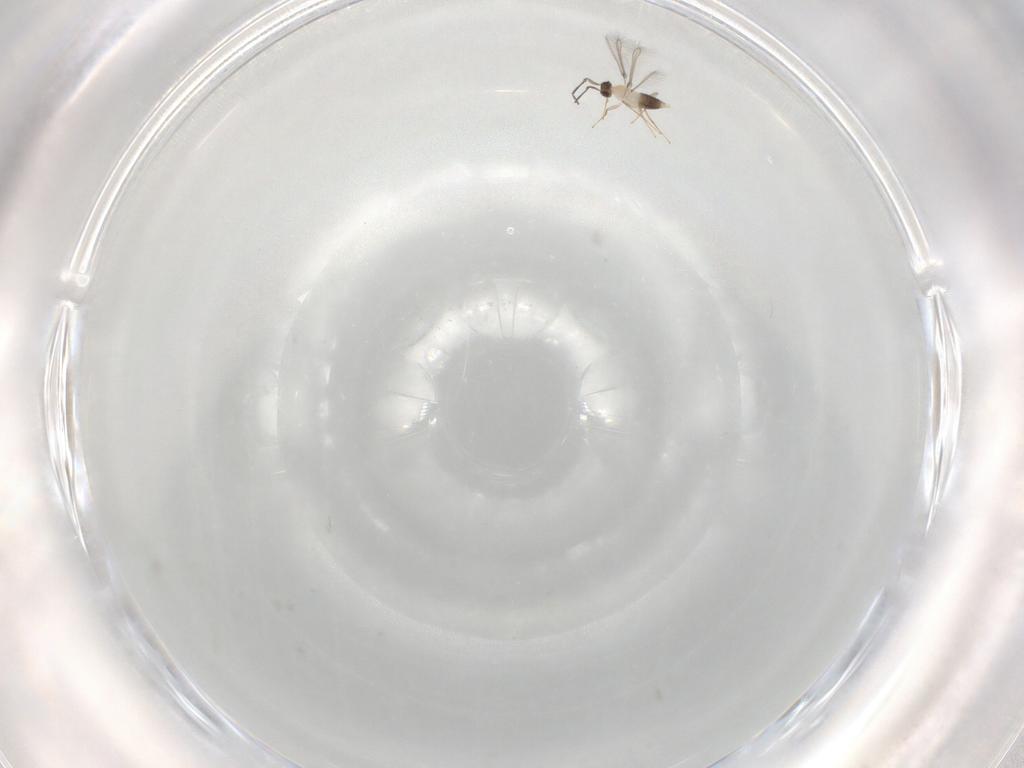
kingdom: Animalia
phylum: Arthropoda
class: Insecta
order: Hymenoptera
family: Mymaridae
